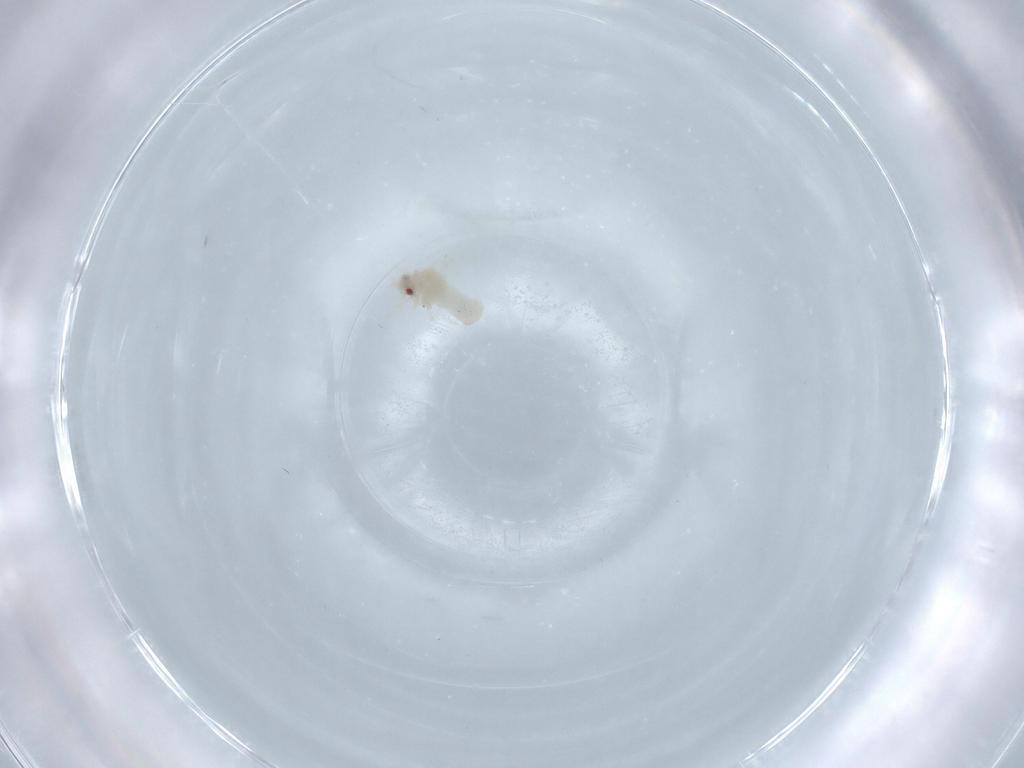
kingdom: Animalia
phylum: Arthropoda
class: Insecta
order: Hemiptera
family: Aleyrodidae
